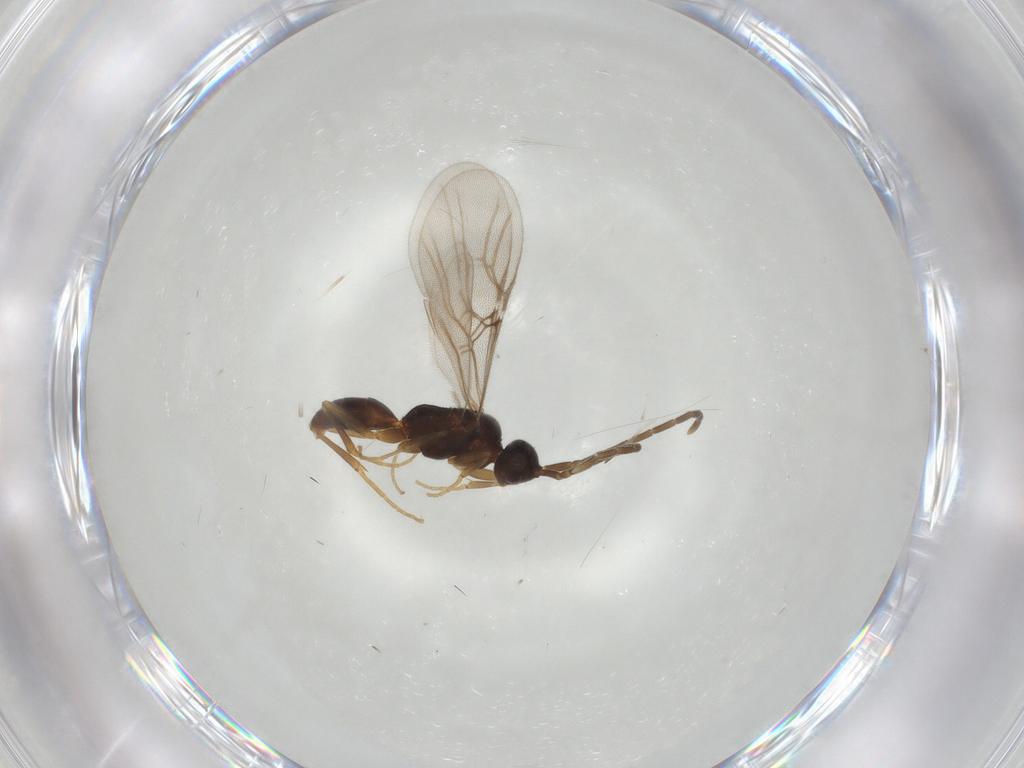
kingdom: Animalia
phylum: Arthropoda
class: Insecta
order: Hymenoptera
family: Embolemidae
